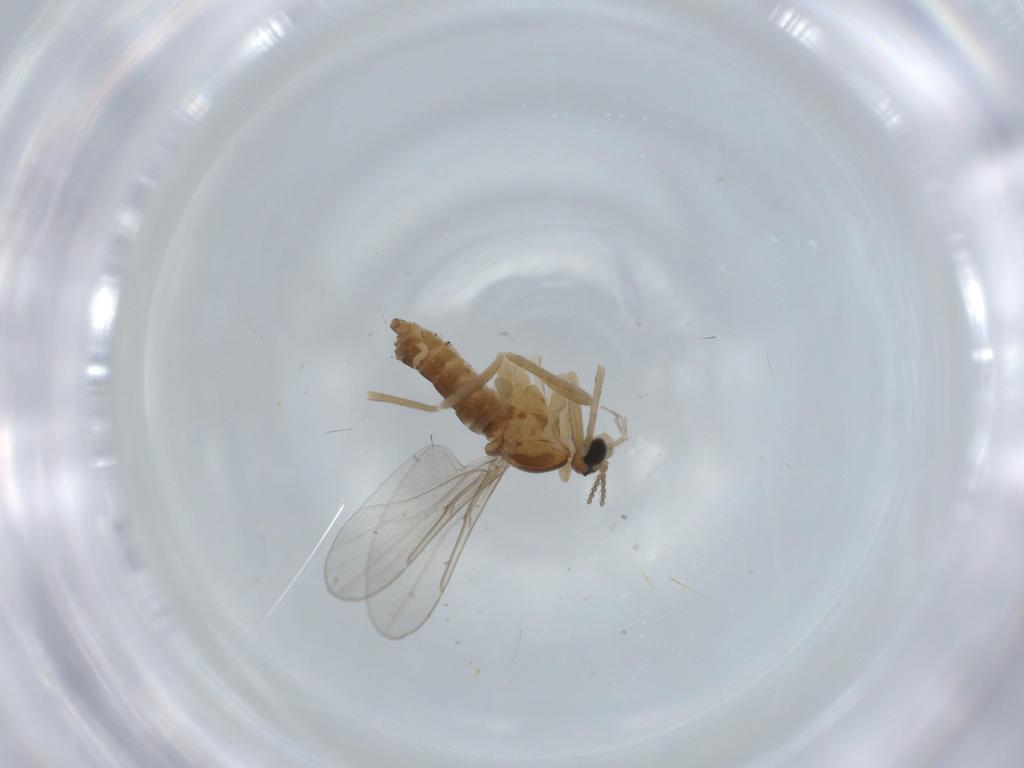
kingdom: Animalia
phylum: Arthropoda
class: Insecta
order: Diptera
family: Cecidomyiidae
